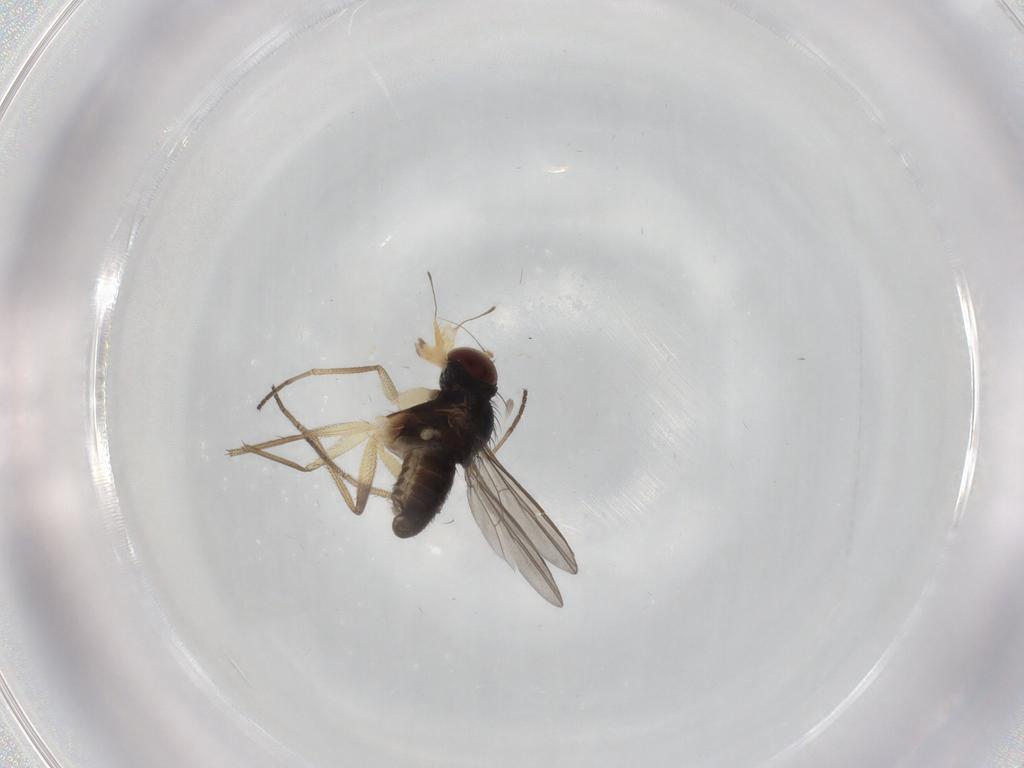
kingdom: Animalia
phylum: Arthropoda
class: Insecta
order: Diptera
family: Dolichopodidae
